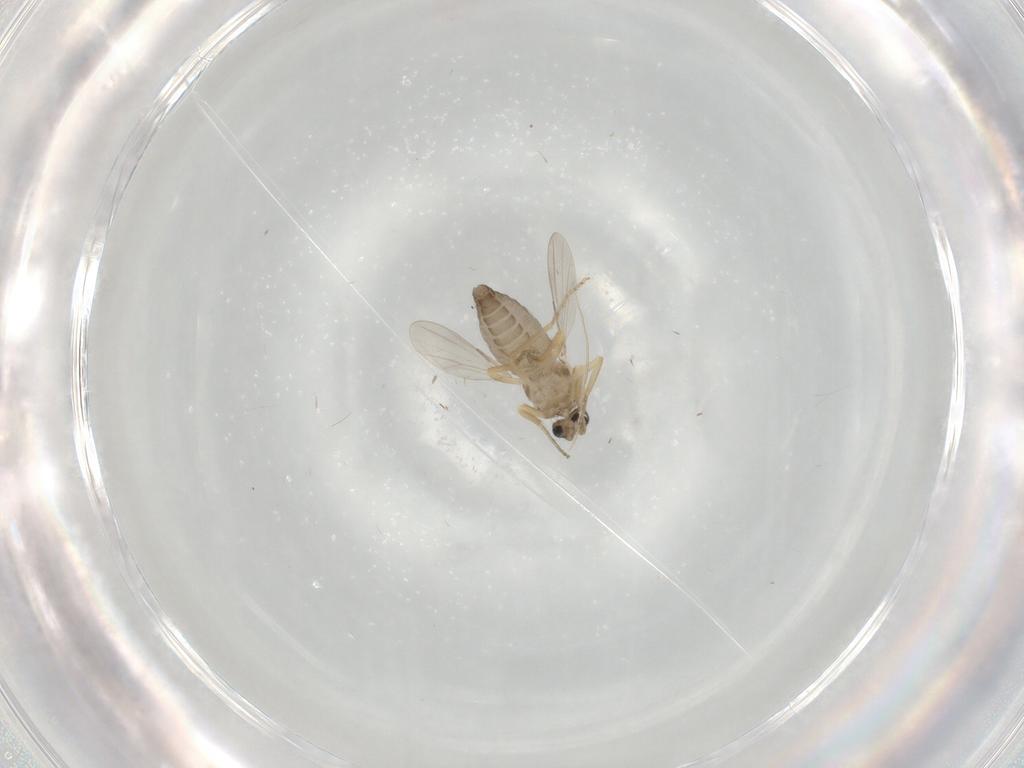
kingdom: Animalia
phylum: Arthropoda
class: Insecta
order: Diptera
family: Ceratopogonidae
